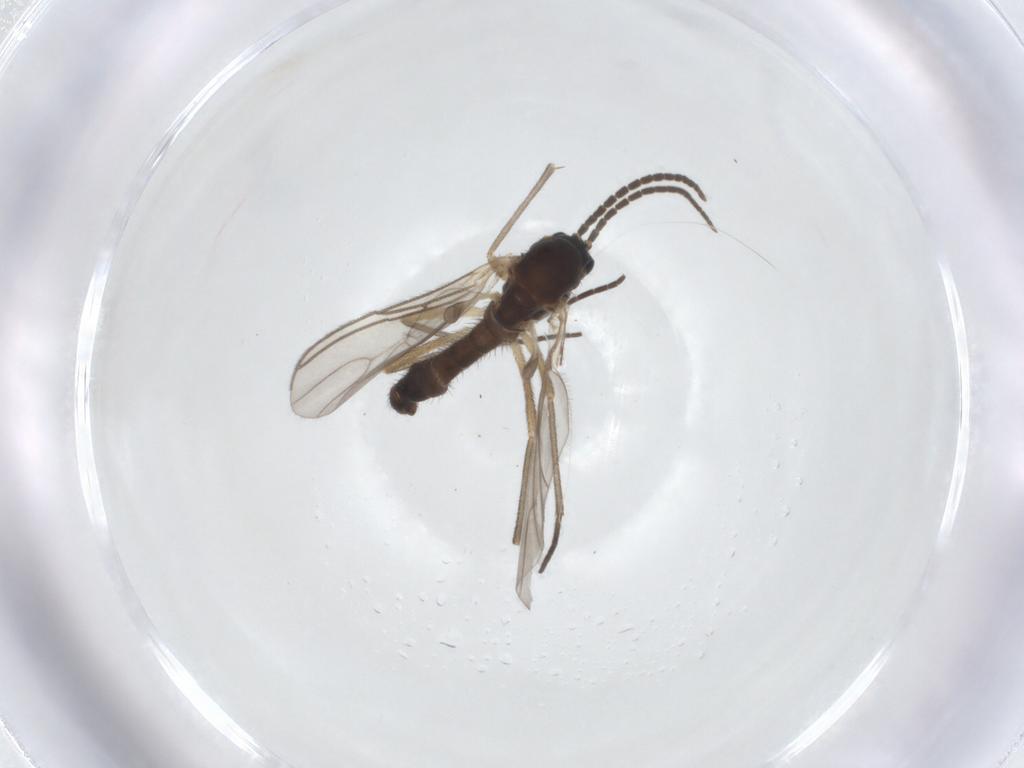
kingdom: Animalia
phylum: Arthropoda
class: Insecta
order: Diptera
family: Sciaridae
